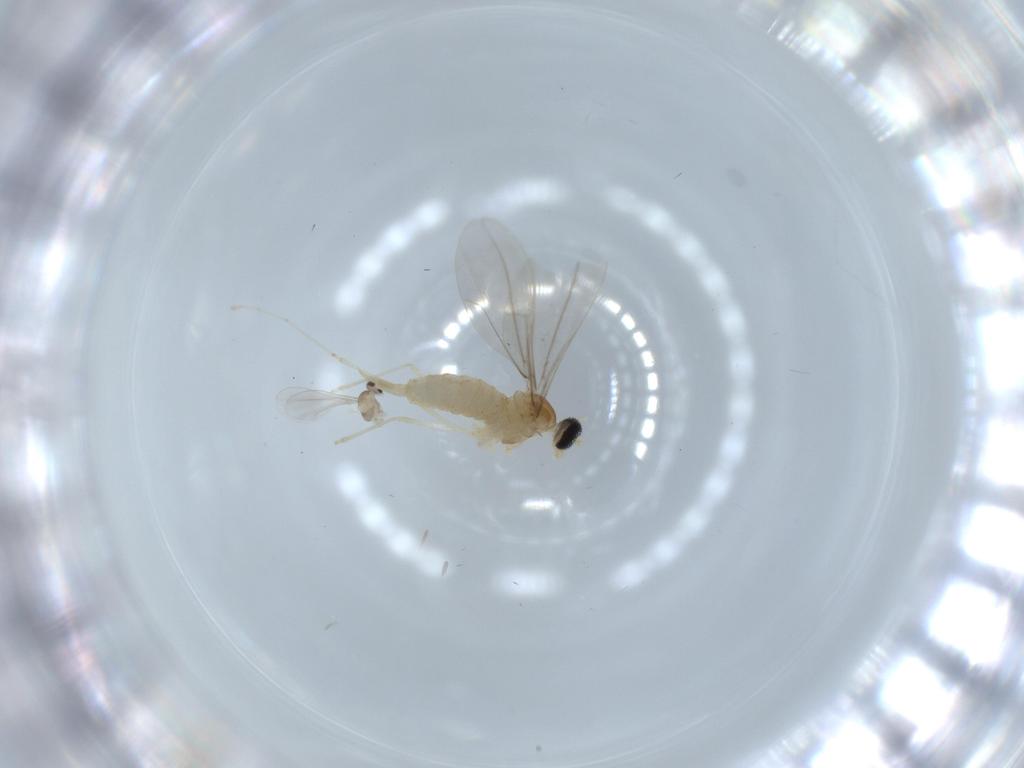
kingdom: Animalia
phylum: Arthropoda
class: Insecta
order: Diptera
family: Cecidomyiidae
